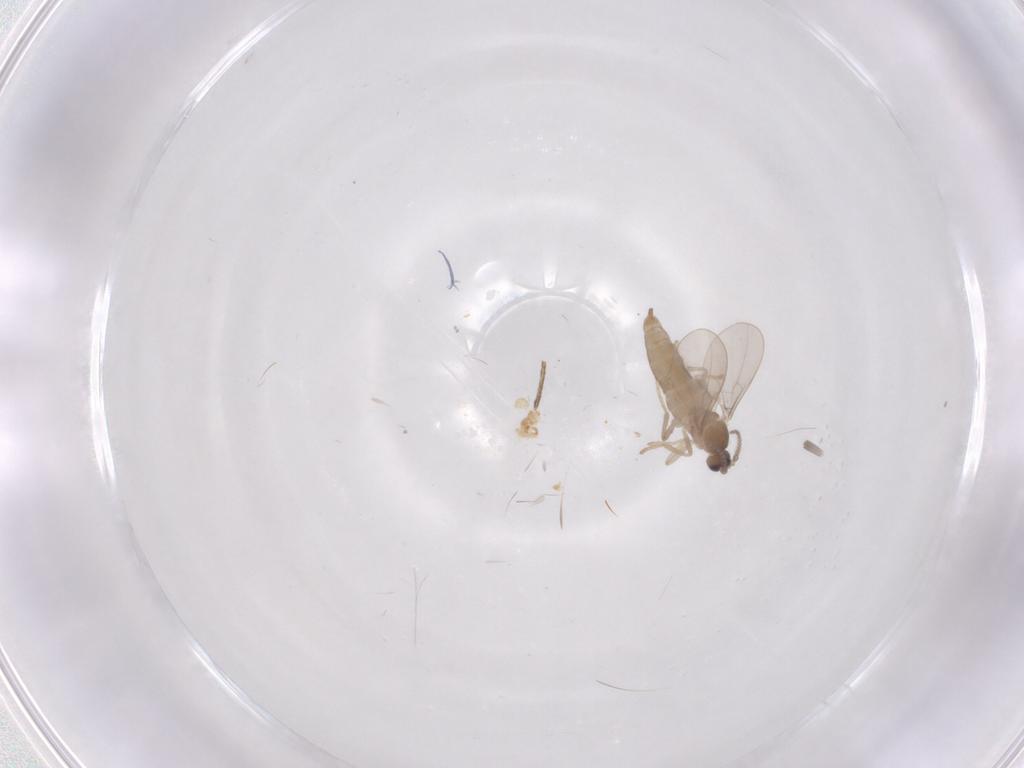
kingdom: Animalia
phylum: Arthropoda
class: Insecta
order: Diptera
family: Cecidomyiidae
